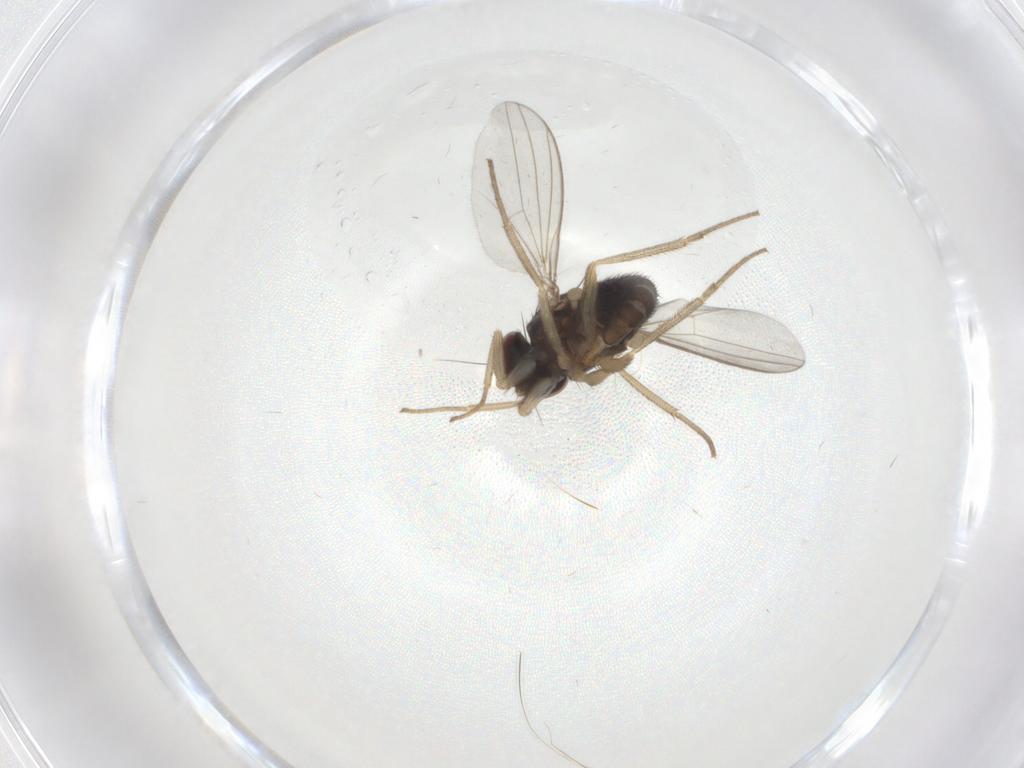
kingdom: Animalia
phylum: Arthropoda
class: Insecta
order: Diptera
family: Dolichopodidae
